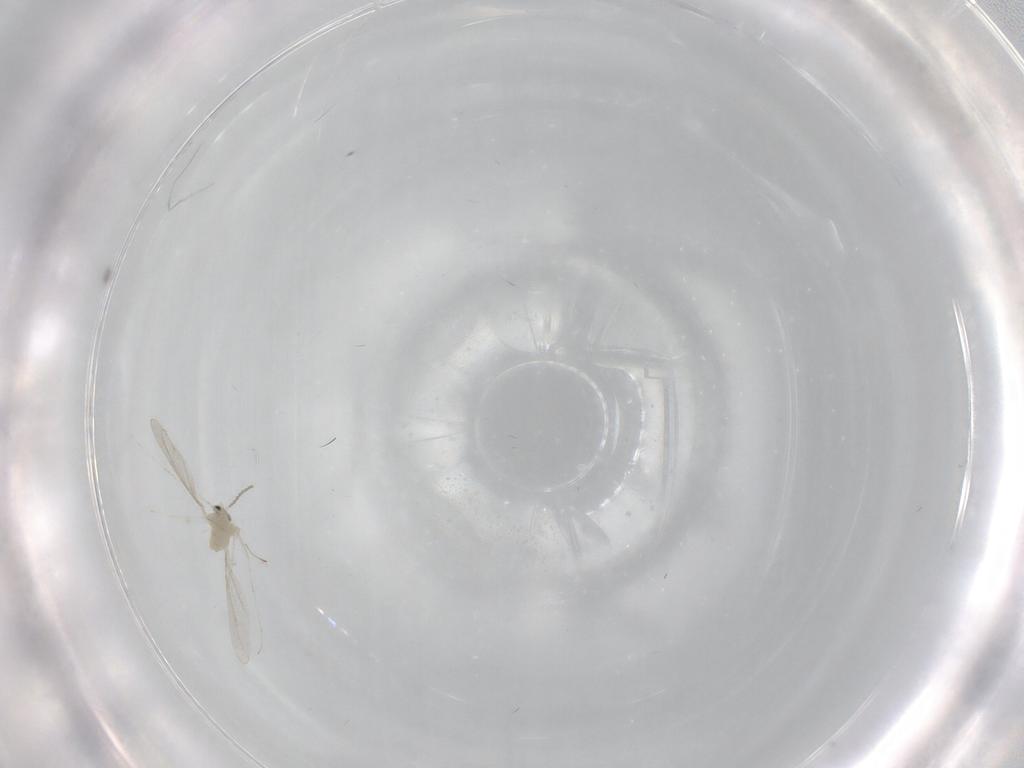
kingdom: Animalia
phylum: Arthropoda
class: Insecta
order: Diptera
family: Cecidomyiidae
